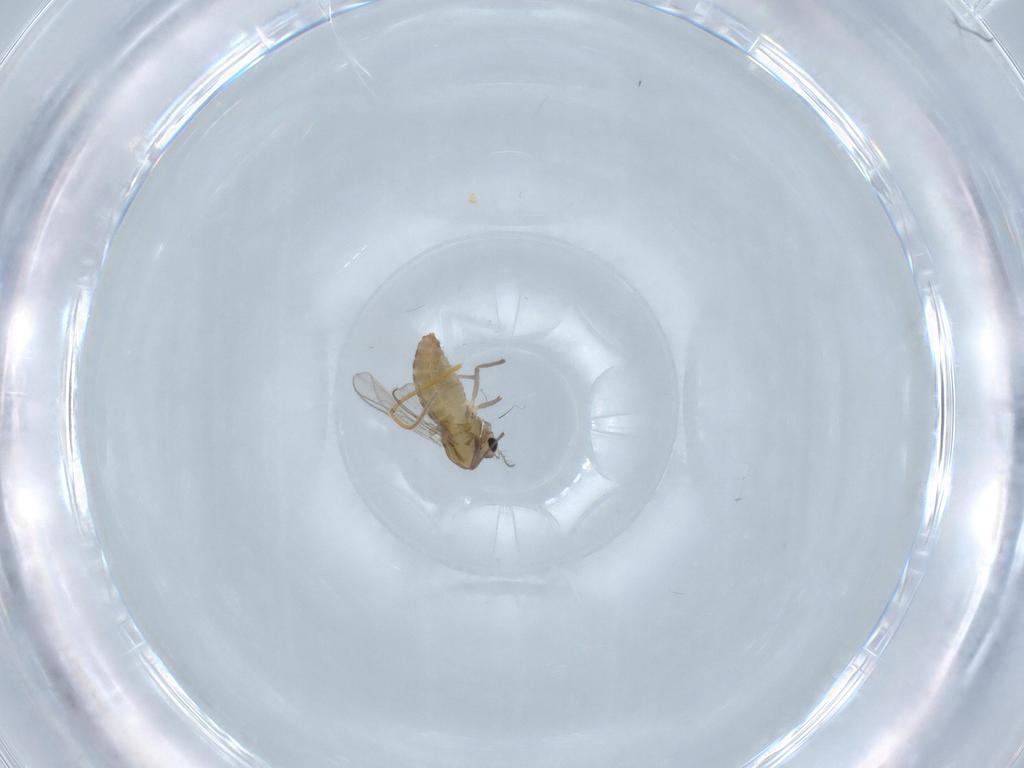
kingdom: Animalia
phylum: Arthropoda
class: Insecta
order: Diptera
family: Chironomidae
